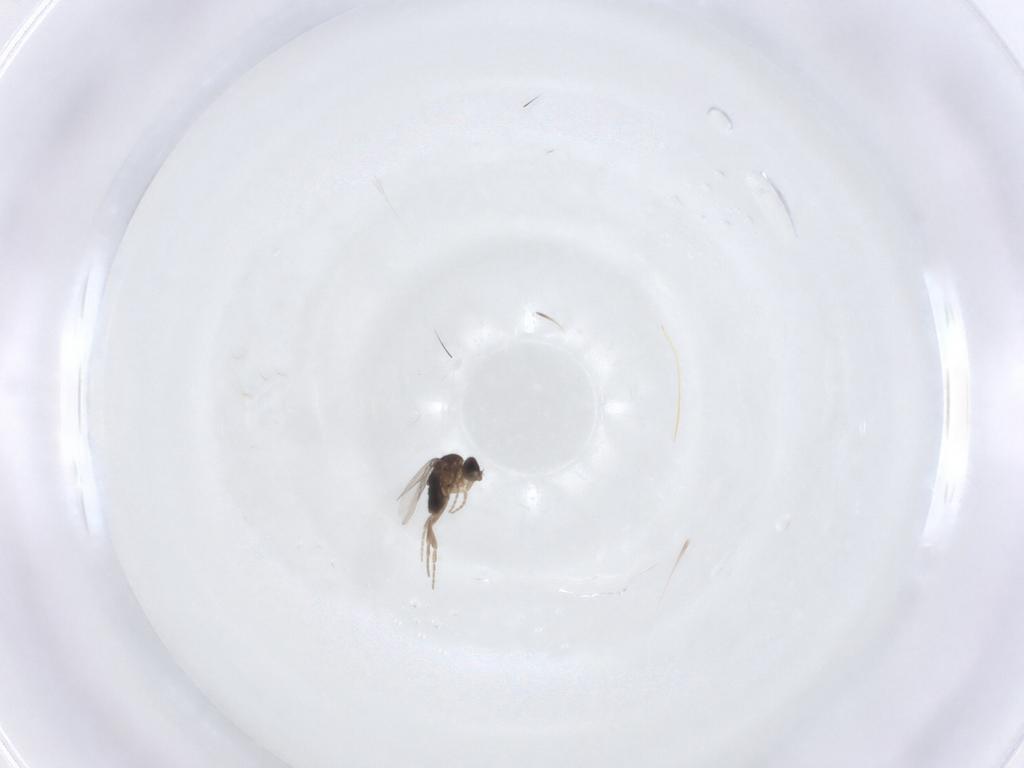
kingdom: Animalia
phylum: Arthropoda
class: Insecta
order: Diptera
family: Phoridae
